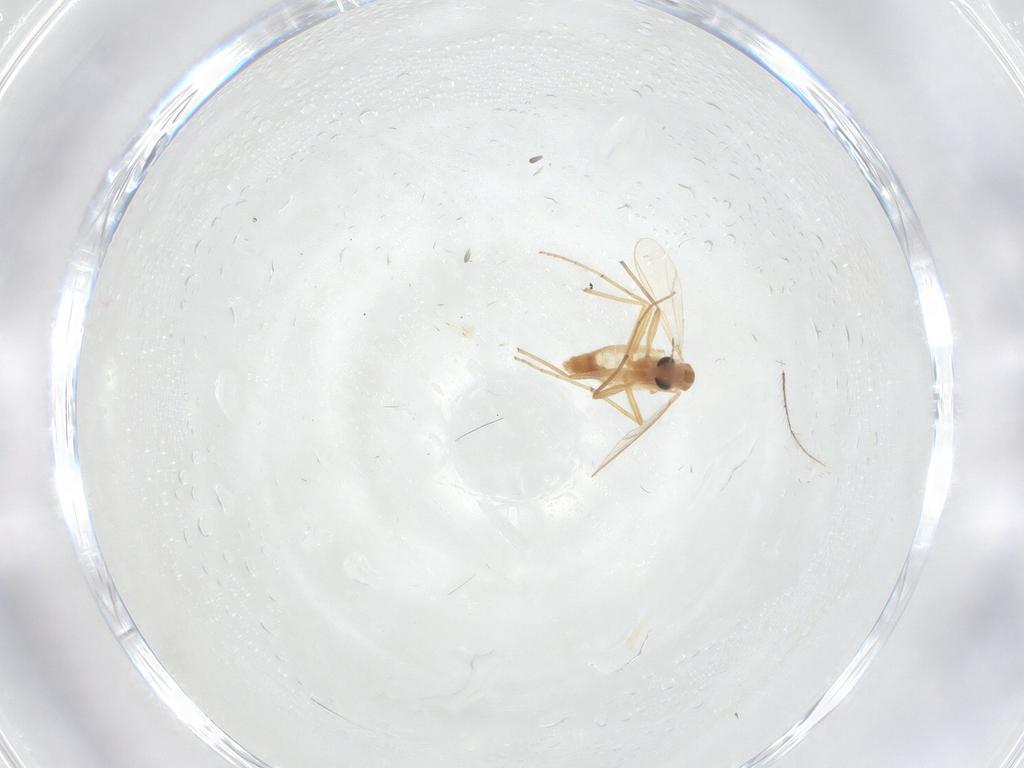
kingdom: Animalia
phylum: Arthropoda
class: Insecta
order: Diptera
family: Chironomidae
